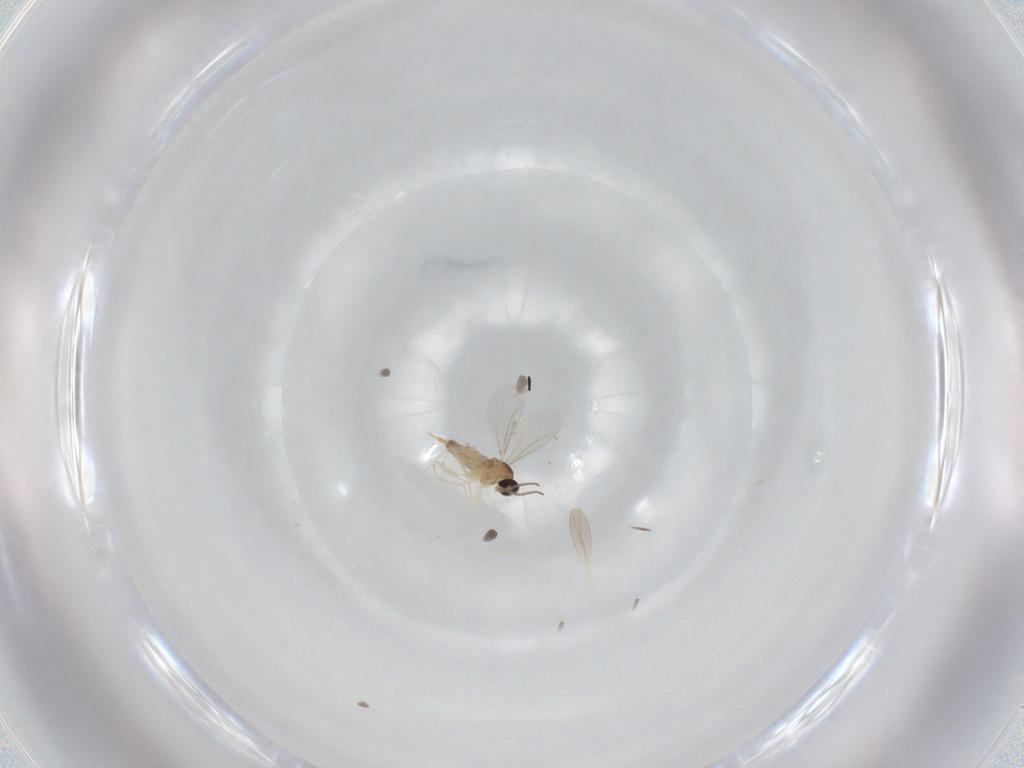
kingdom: Animalia
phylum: Arthropoda
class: Insecta
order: Diptera
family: Cecidomyiidae
